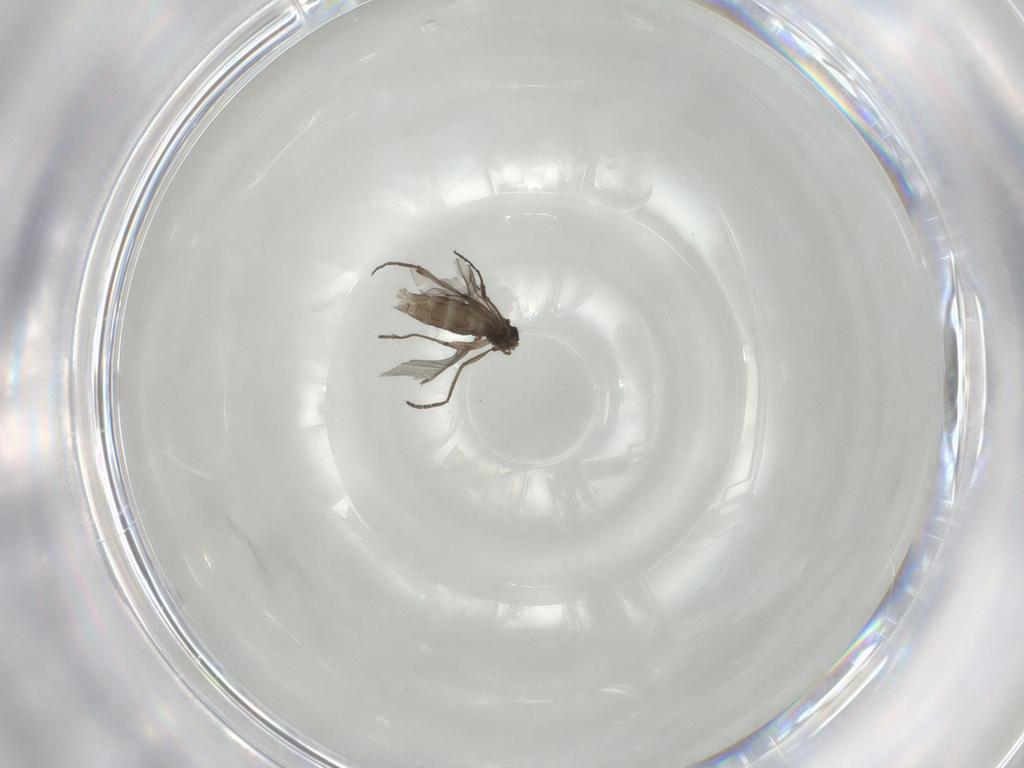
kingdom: Animalia
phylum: Arthropoda
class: Insecta
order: Diptera
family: Sciaridae
